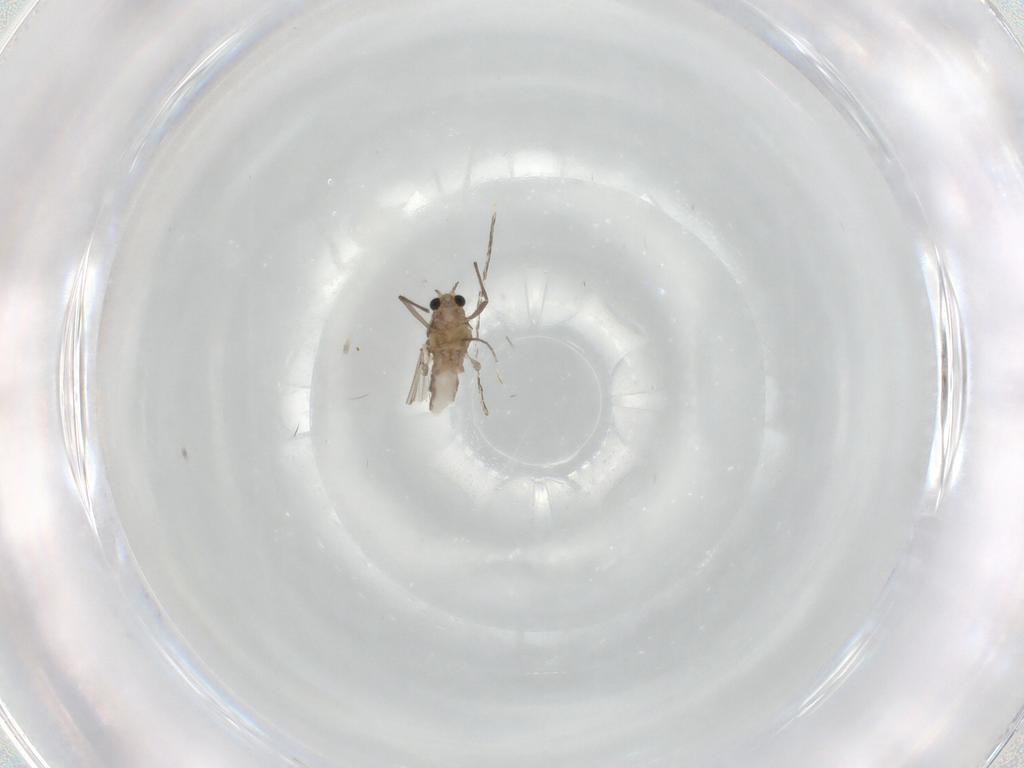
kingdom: Animalia
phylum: Arthropoda
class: Insecta
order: Diptera
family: Chironomidae
